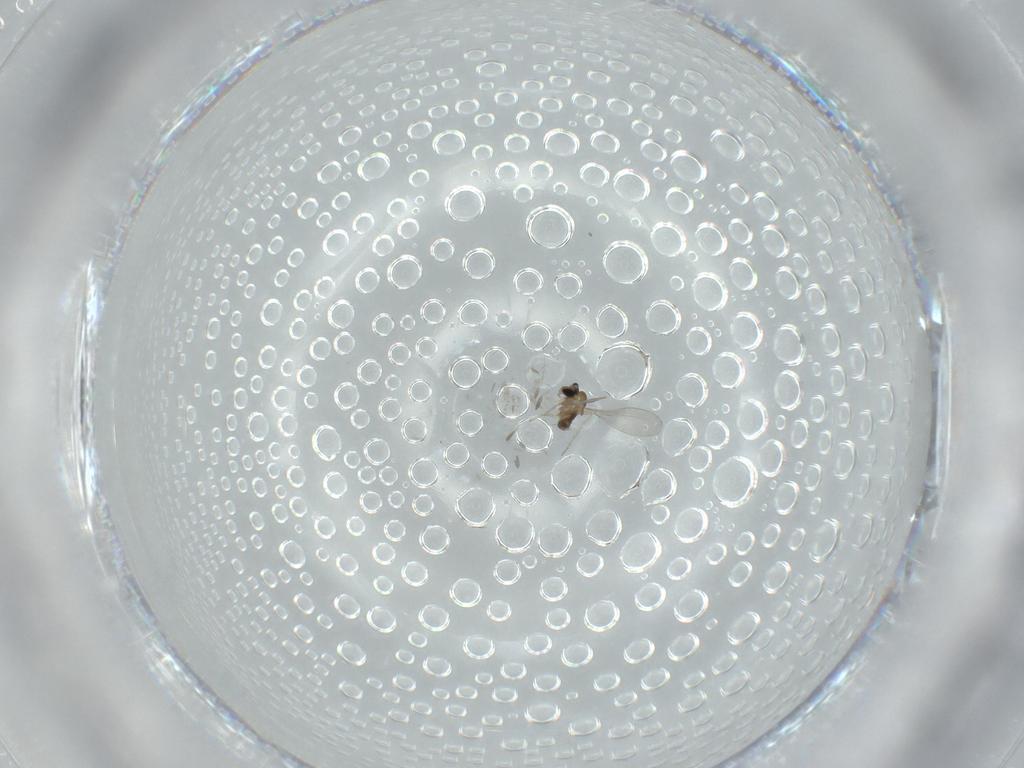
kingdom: Animalia
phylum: Arthropoda
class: Insecta
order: Diptera
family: Cecidomyiidae
